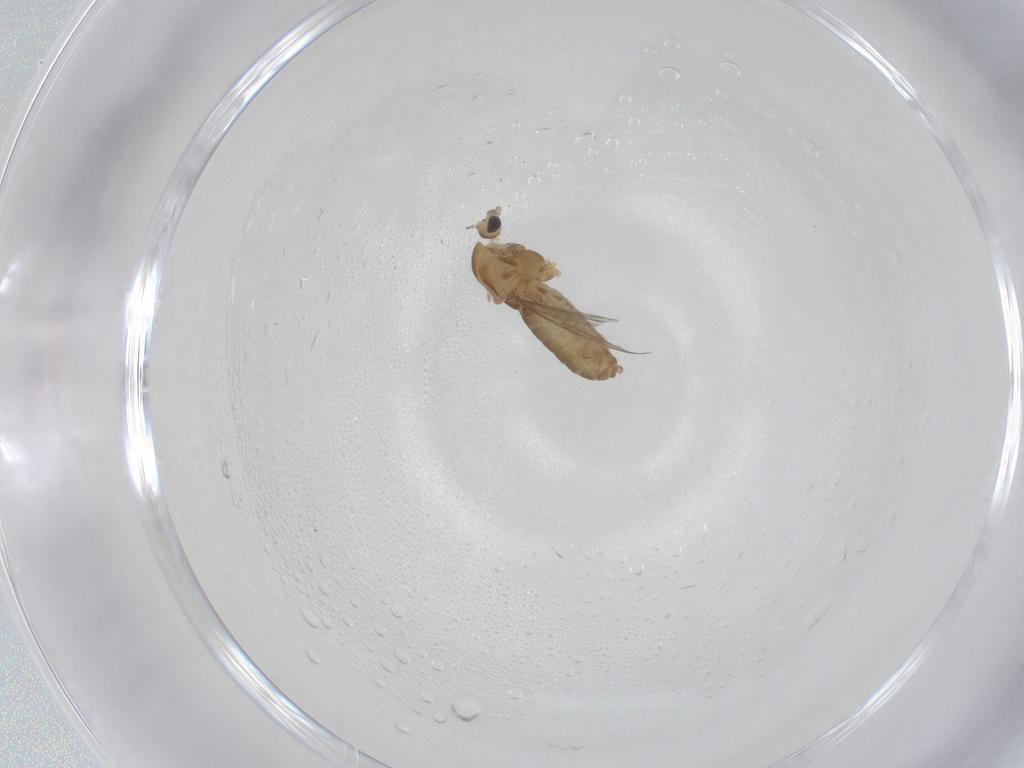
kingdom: Animalia
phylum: Arthropoda
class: Insecta
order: Diptera
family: Chironomidae
